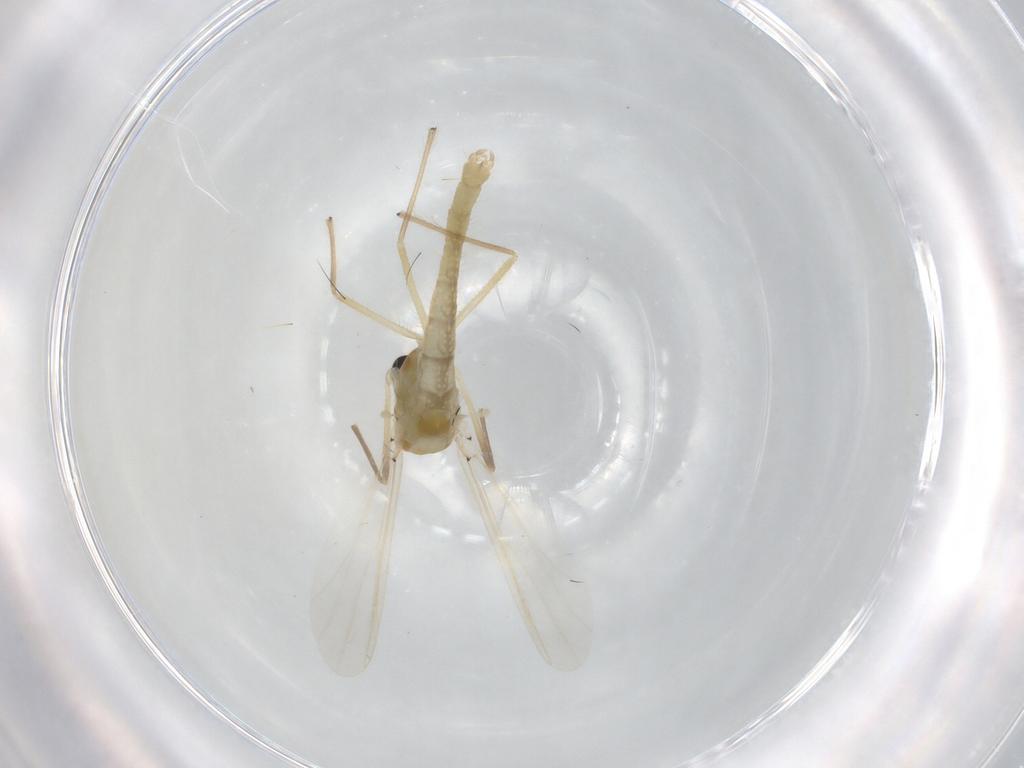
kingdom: Animalia
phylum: Arthropoda
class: Insecta
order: Diptera
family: Chironomidae
